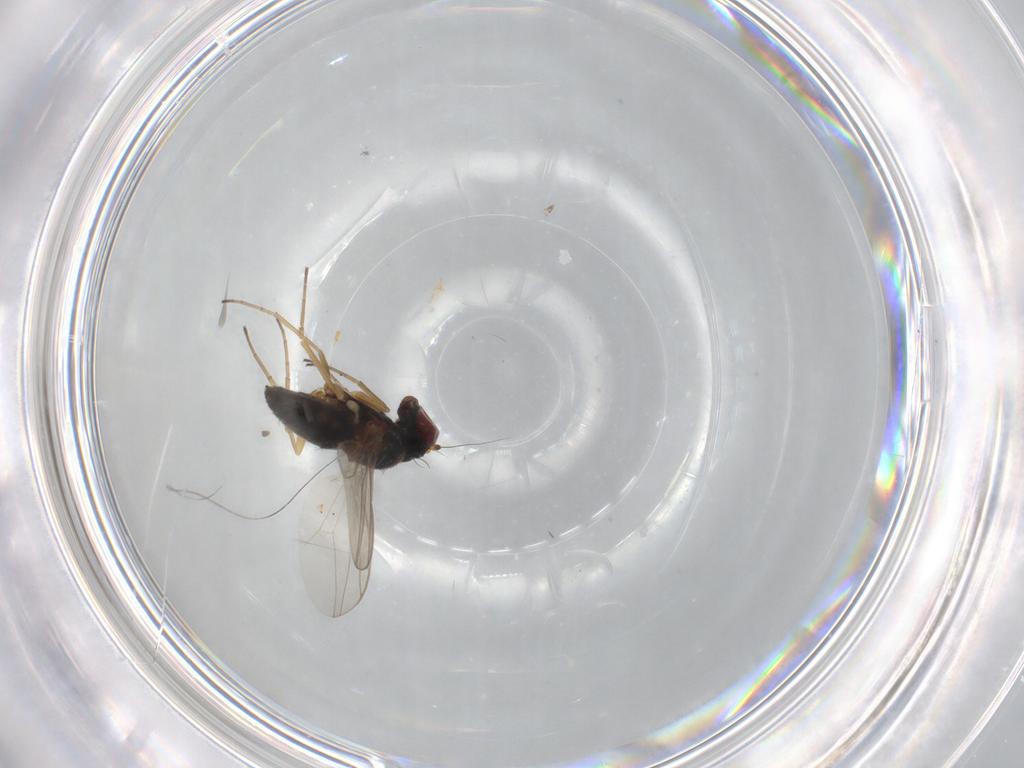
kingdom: Animalia
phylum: Arthropoda
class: Insecta
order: Diptera
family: Dolichopodidae
